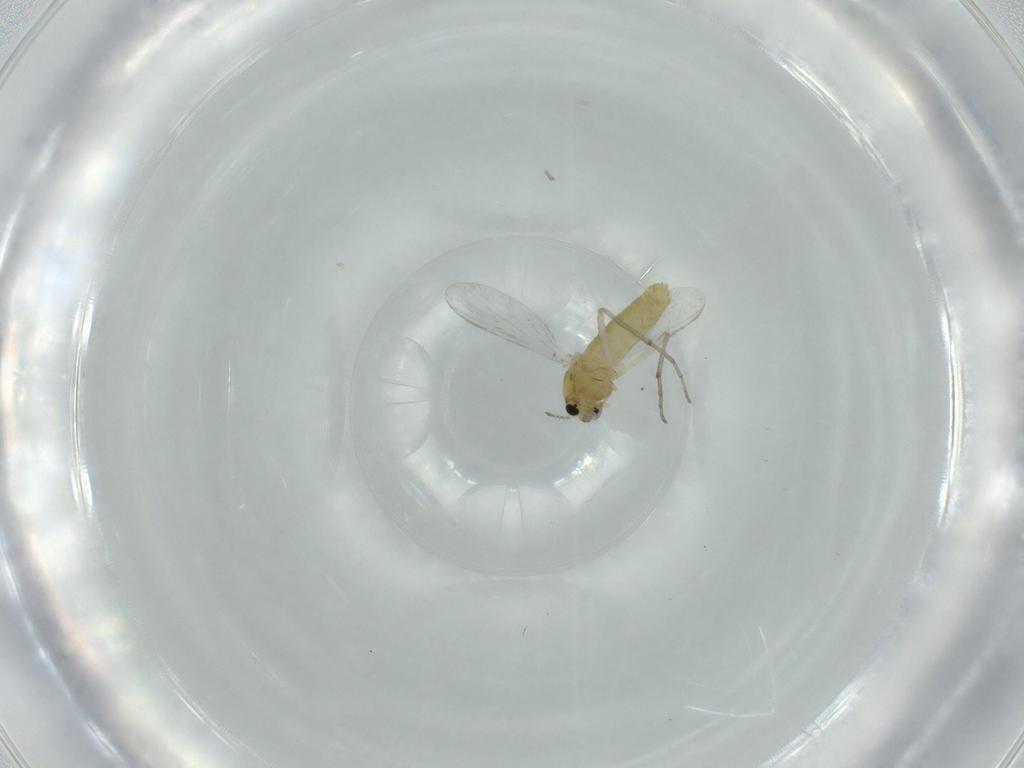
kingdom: Animalia
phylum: Arthropoda
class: Insecta
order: Diptera
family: Chironomidae
